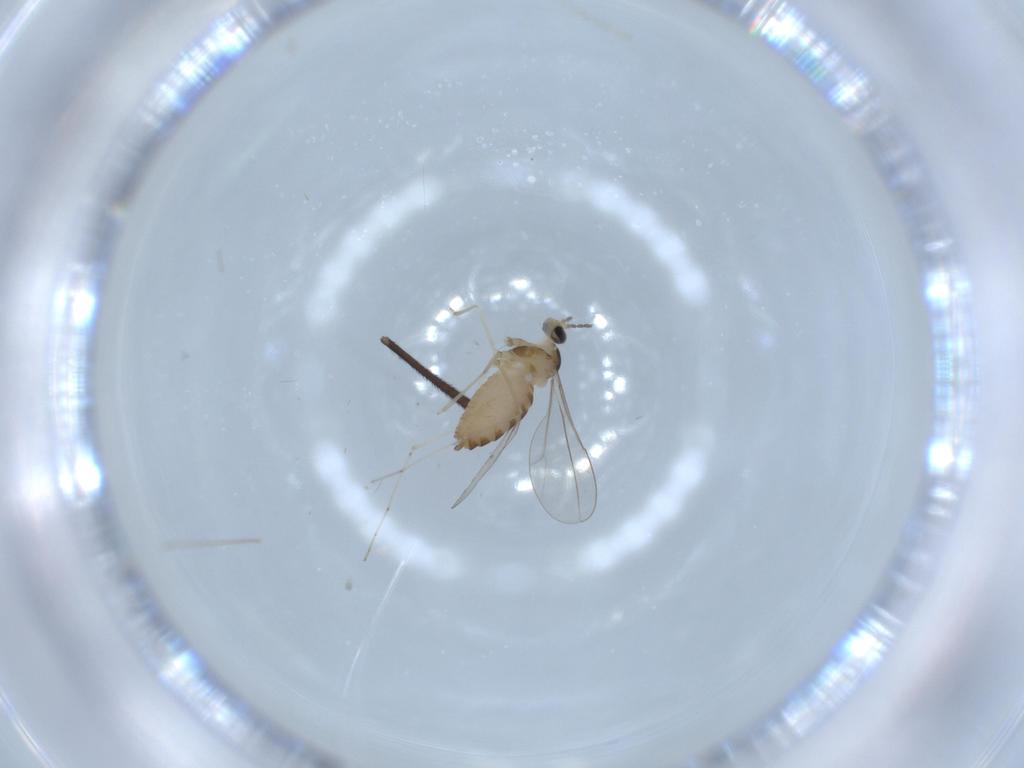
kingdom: Animalia
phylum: Arthropoda
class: Insecta
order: Diptera
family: Cecidomyiidae
